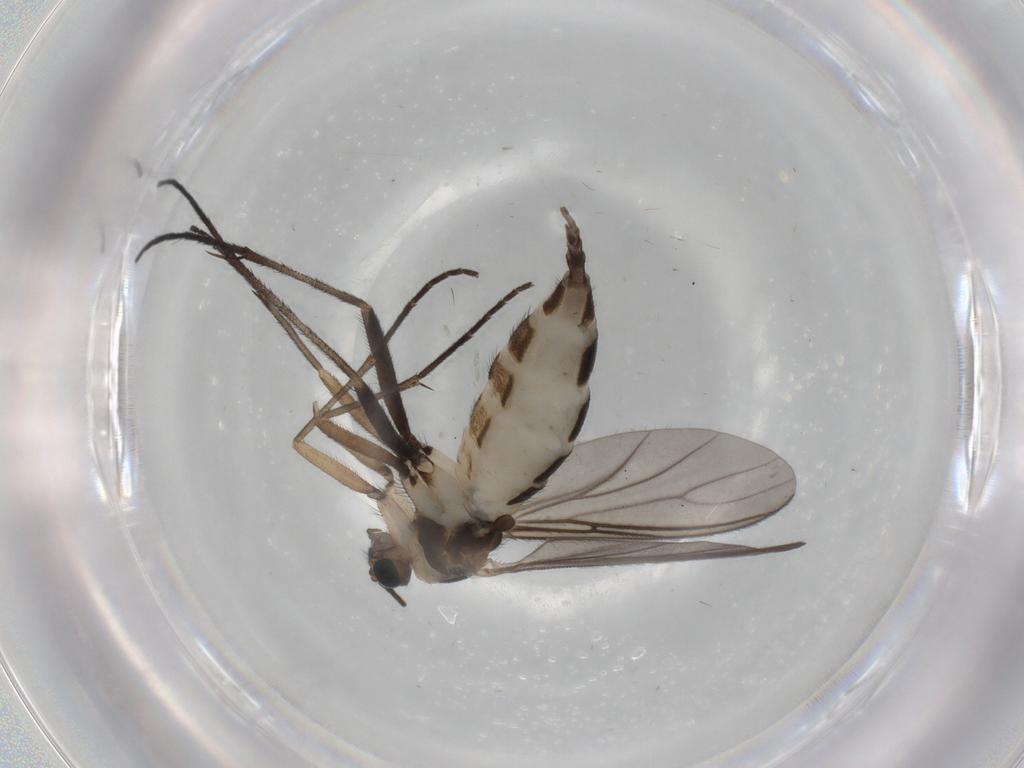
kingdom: Animalia
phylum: Arthropoda
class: Insecta
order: Diptera
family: Sciaridae
